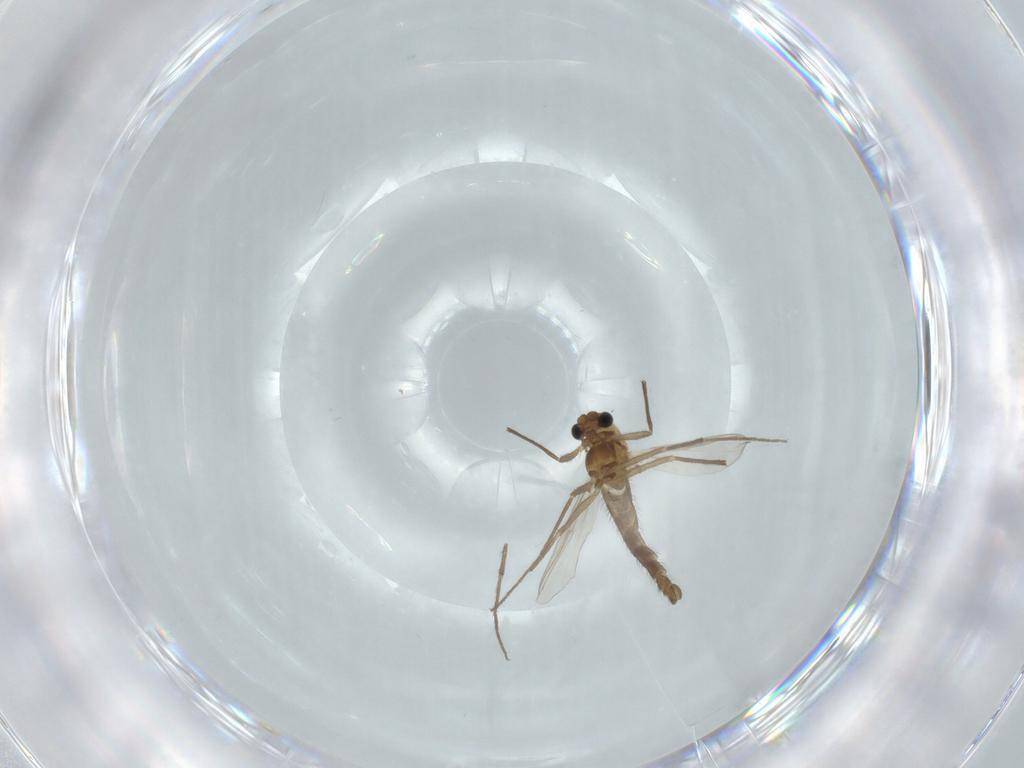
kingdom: Animalia
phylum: Arthropoda
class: Insecta
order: Diptera
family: Chironomidae
